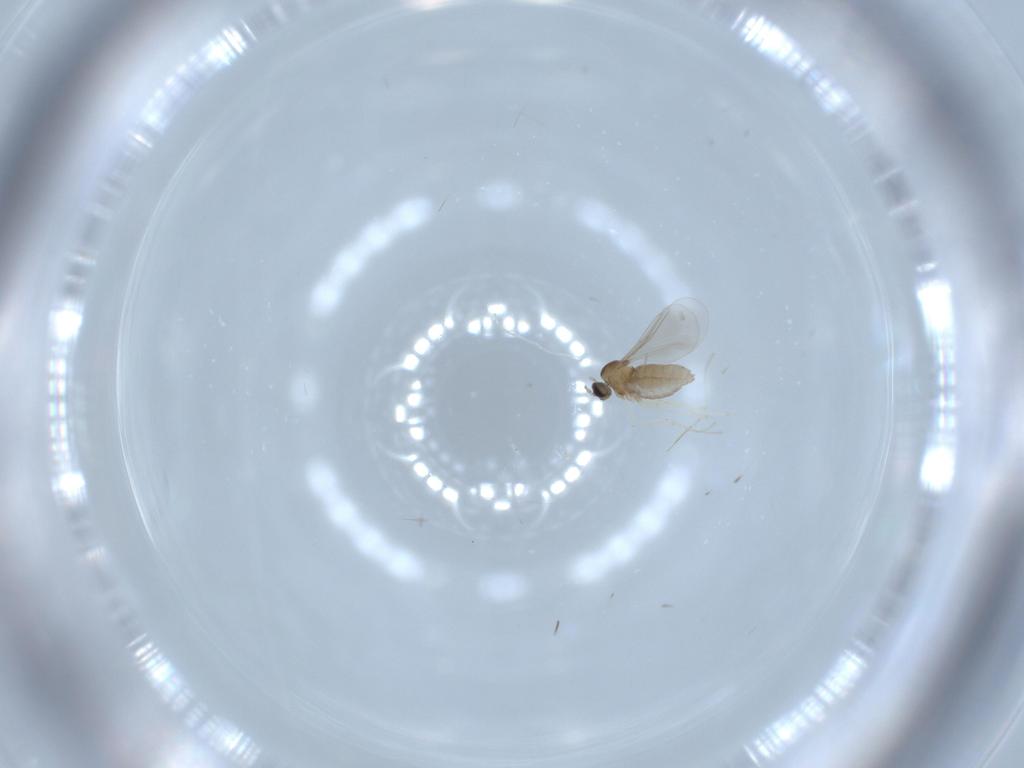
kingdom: Animalia
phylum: Arthropoda
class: Insecta
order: Diptera
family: Cecidomyiidae
